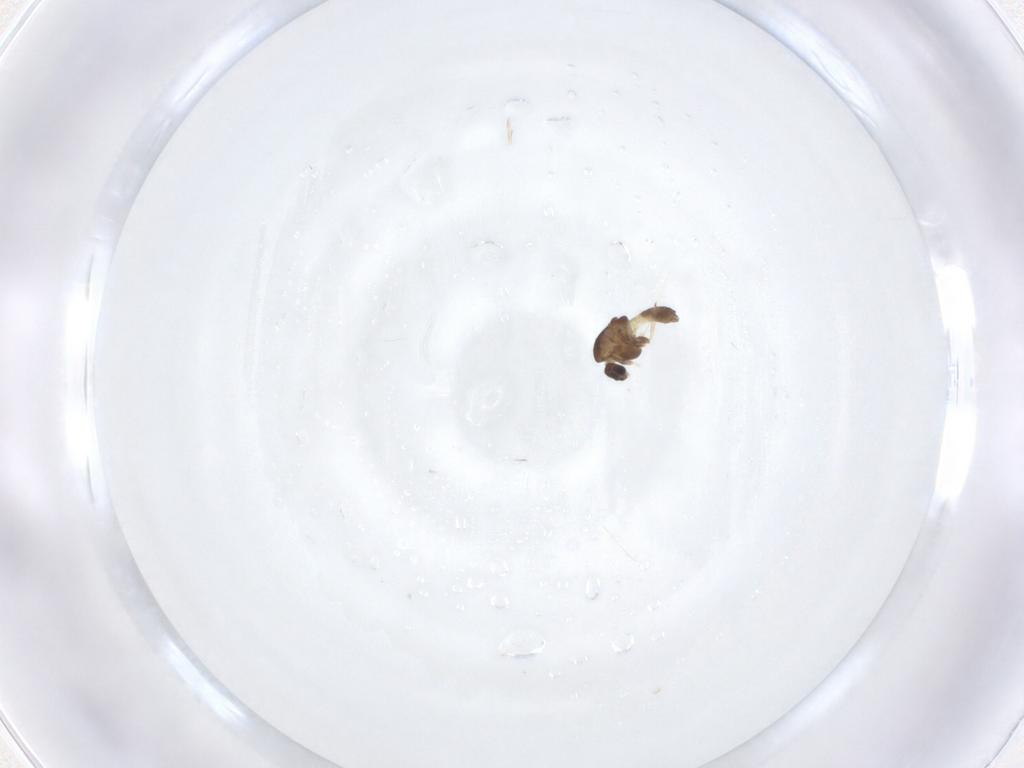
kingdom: Animalia
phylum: Arthropoda
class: Insecta
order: Diptera
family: Chironomidae
